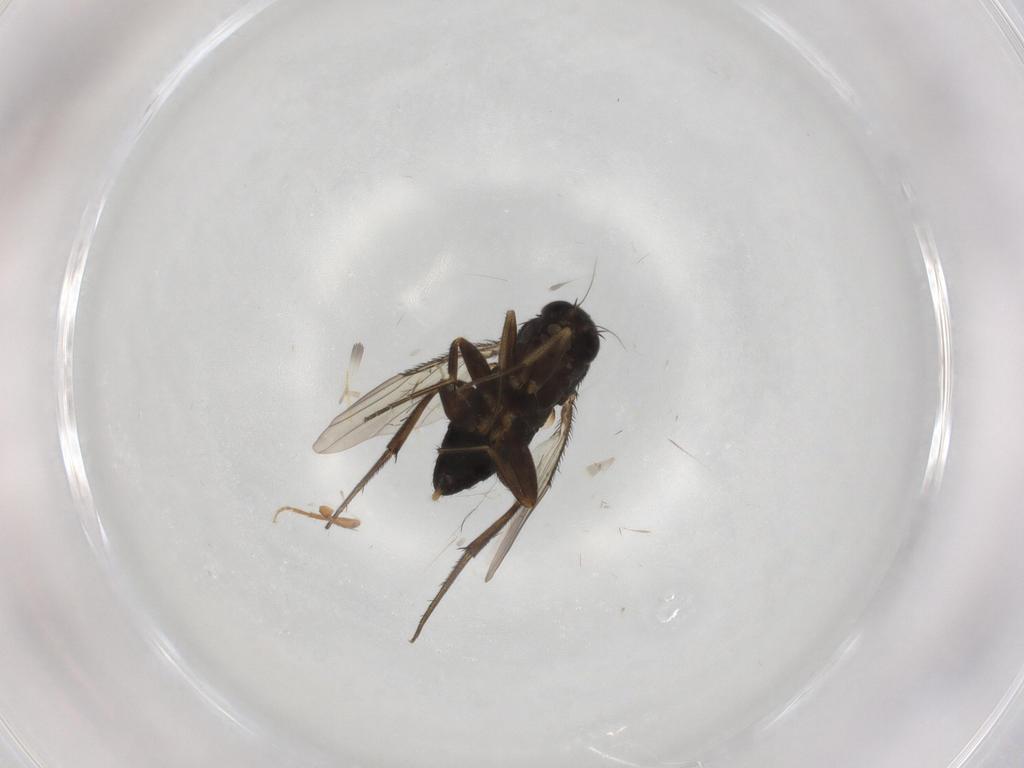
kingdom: Animalia
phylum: Arthropoda
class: Insecta
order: Diptera
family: Phoridae
